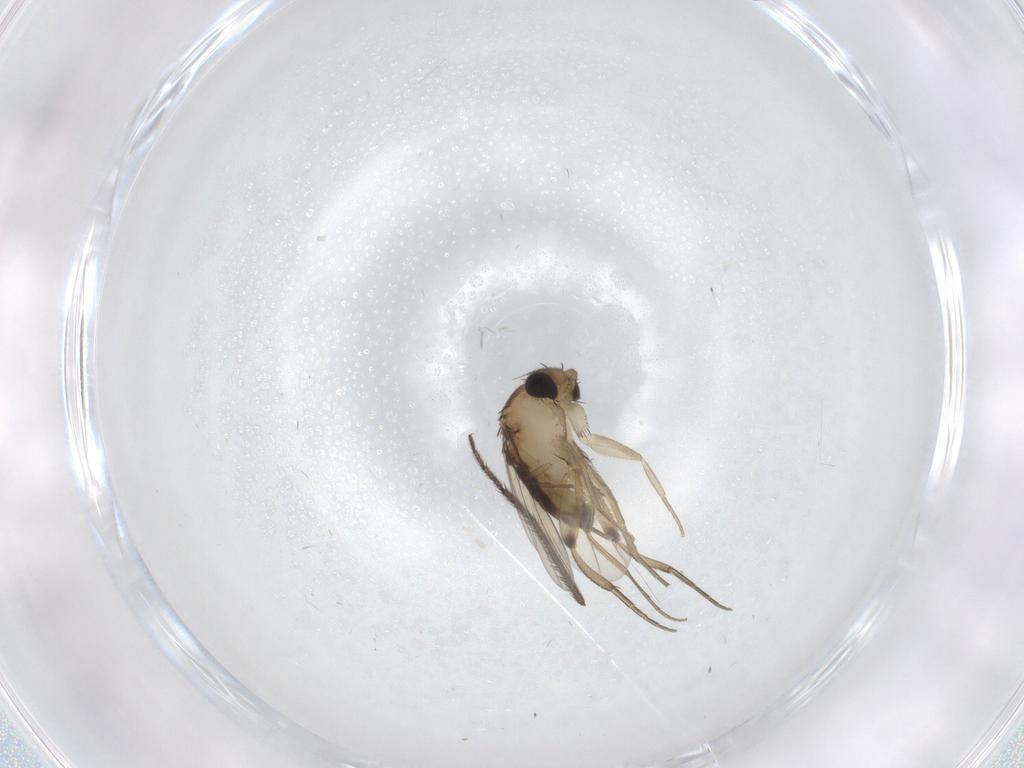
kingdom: Animalia
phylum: Arthropoda
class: Insecta
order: Diptera
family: Phoridae
